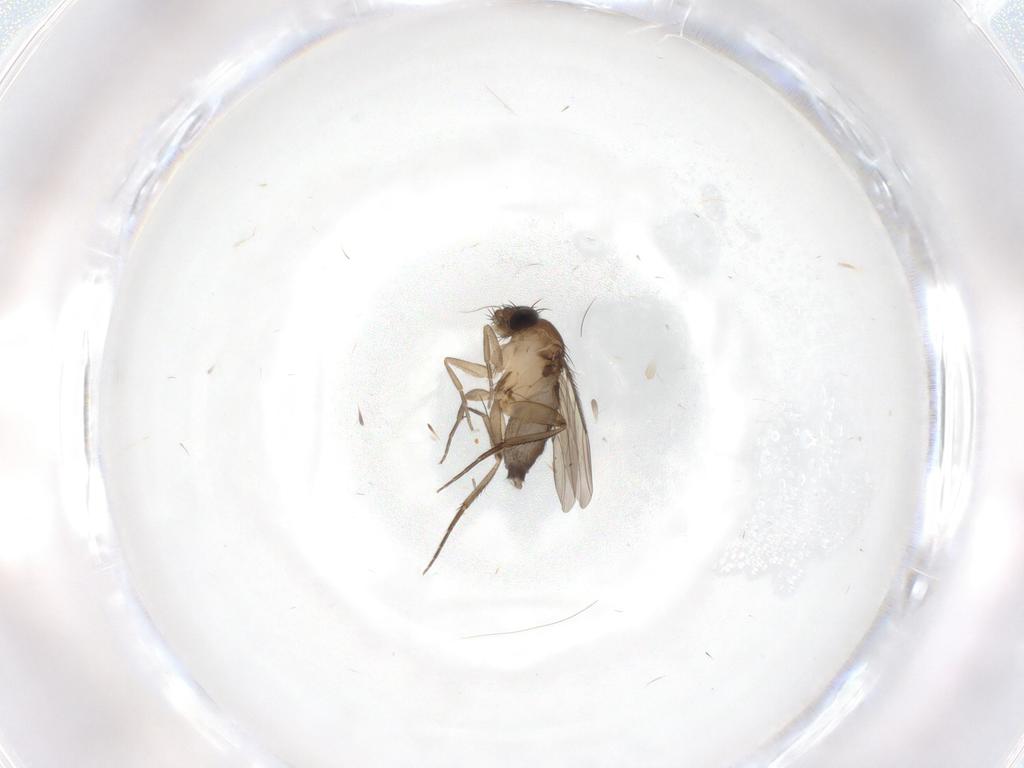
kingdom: Animalia
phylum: Arthropoda
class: Insecta
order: Diptera
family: Phoridae
